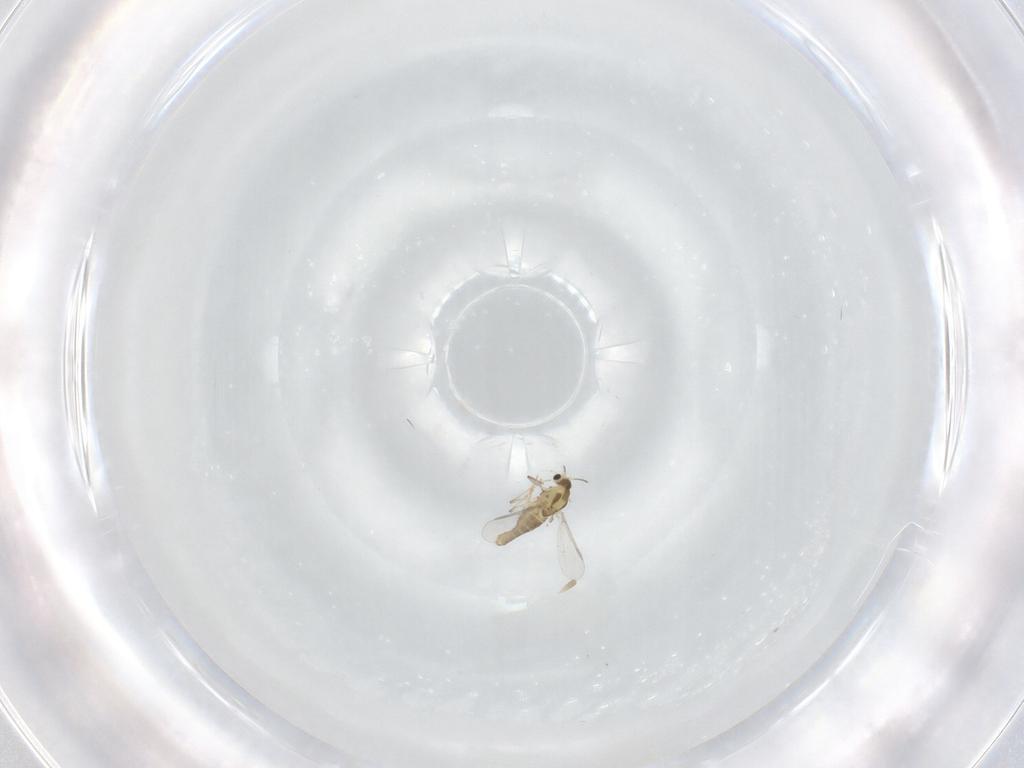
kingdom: Animalia
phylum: Arthropoda
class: Insecta
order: Diptera
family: Chironomidae
